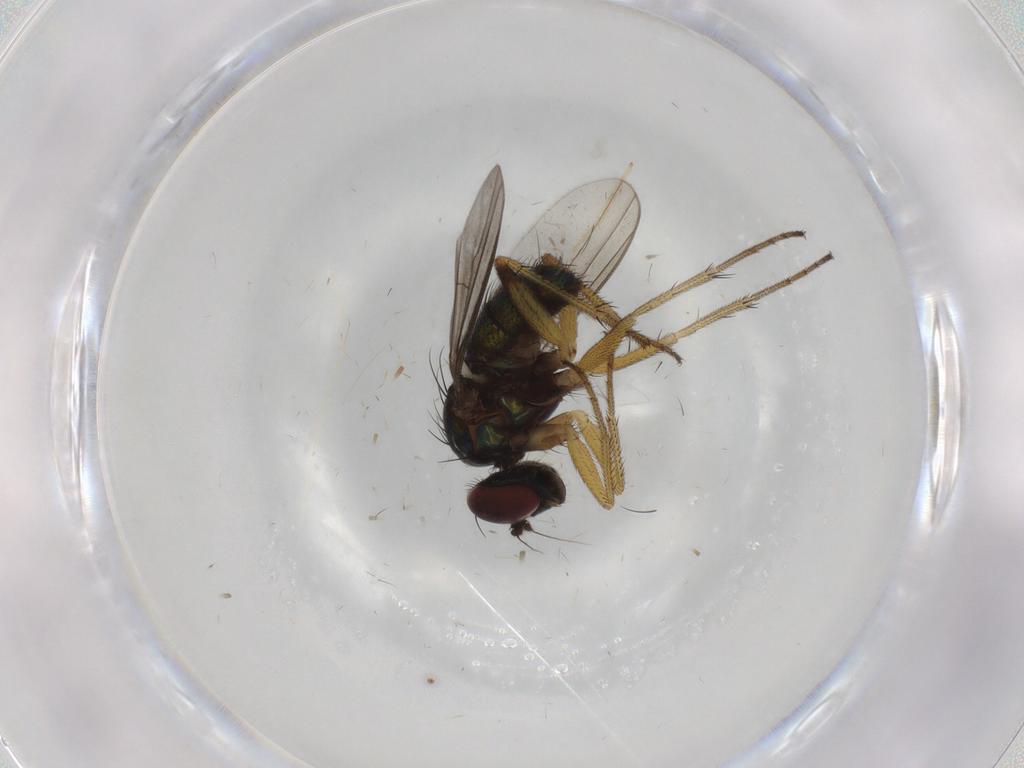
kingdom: Animalia
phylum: Arthropoda
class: Insecta
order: Diptera
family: Dolichopodidae
